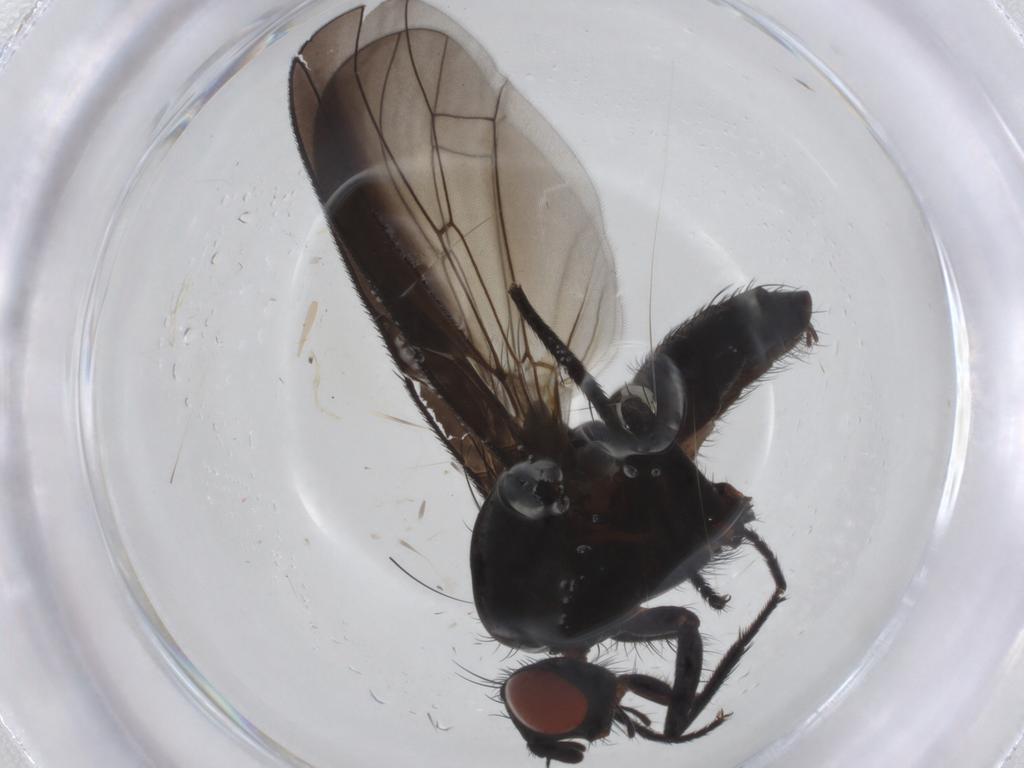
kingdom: Animalia
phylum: Arthropoda
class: Insecta
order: Diptera
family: Anthomyiidae
